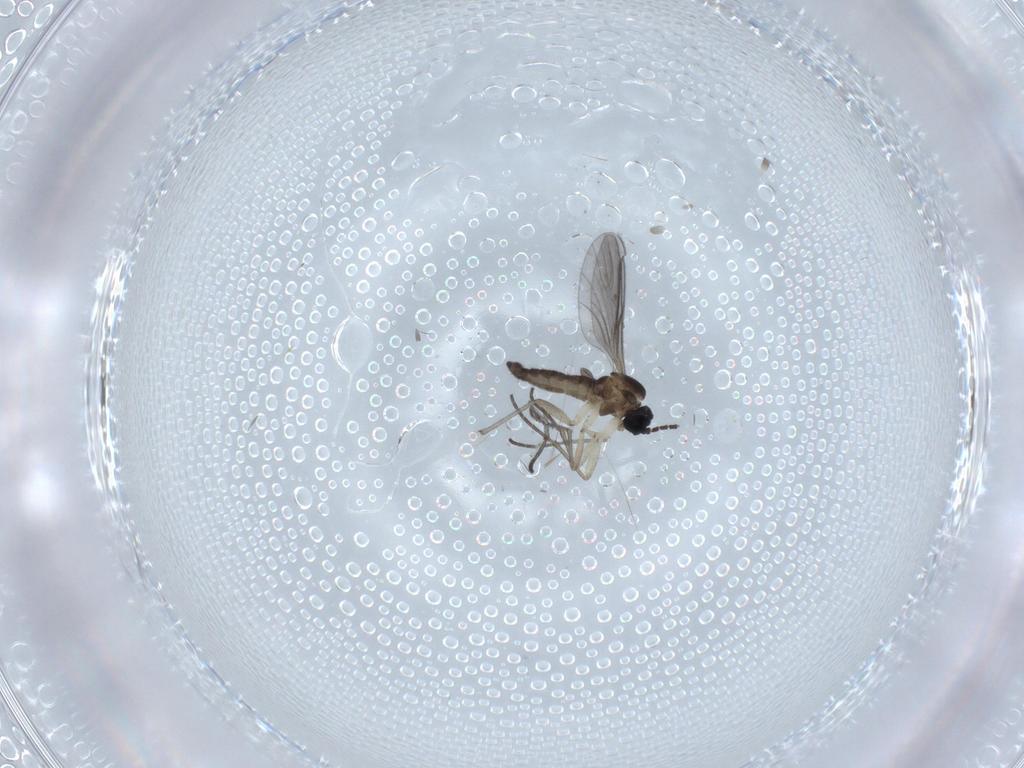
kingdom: Animalia
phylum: Arthropoda
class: Insecta
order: Diptera
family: Sciaridae
